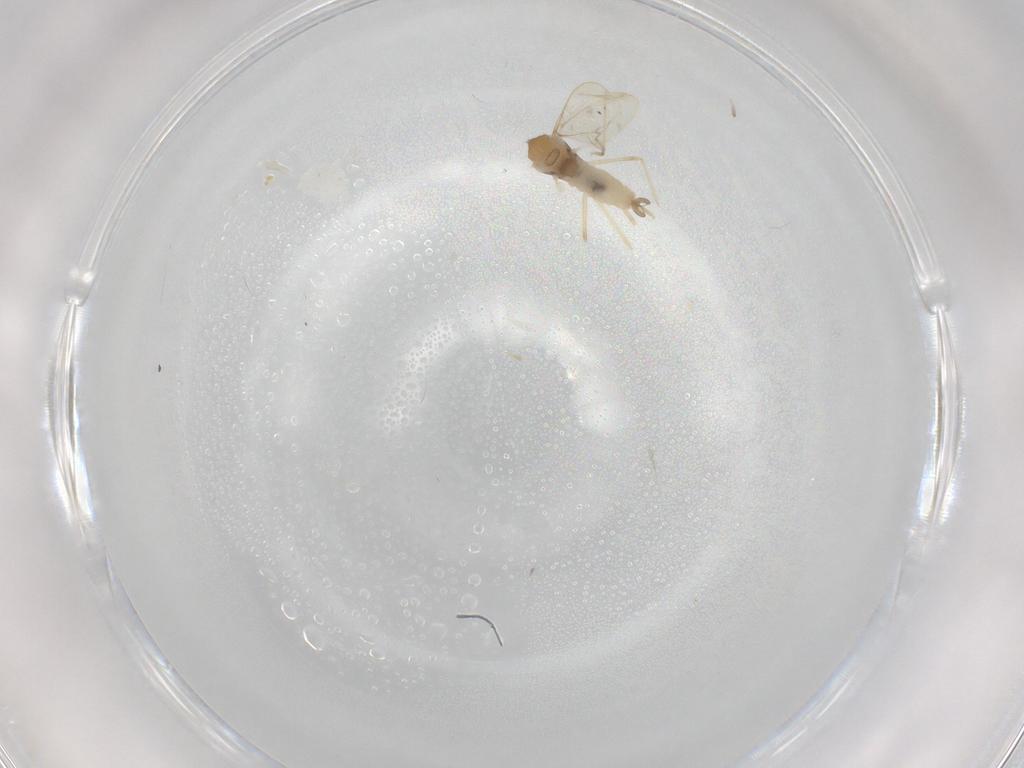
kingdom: Animalia
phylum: Arthropoda
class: Insecta
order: Diptera
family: Cecidomyiidae
